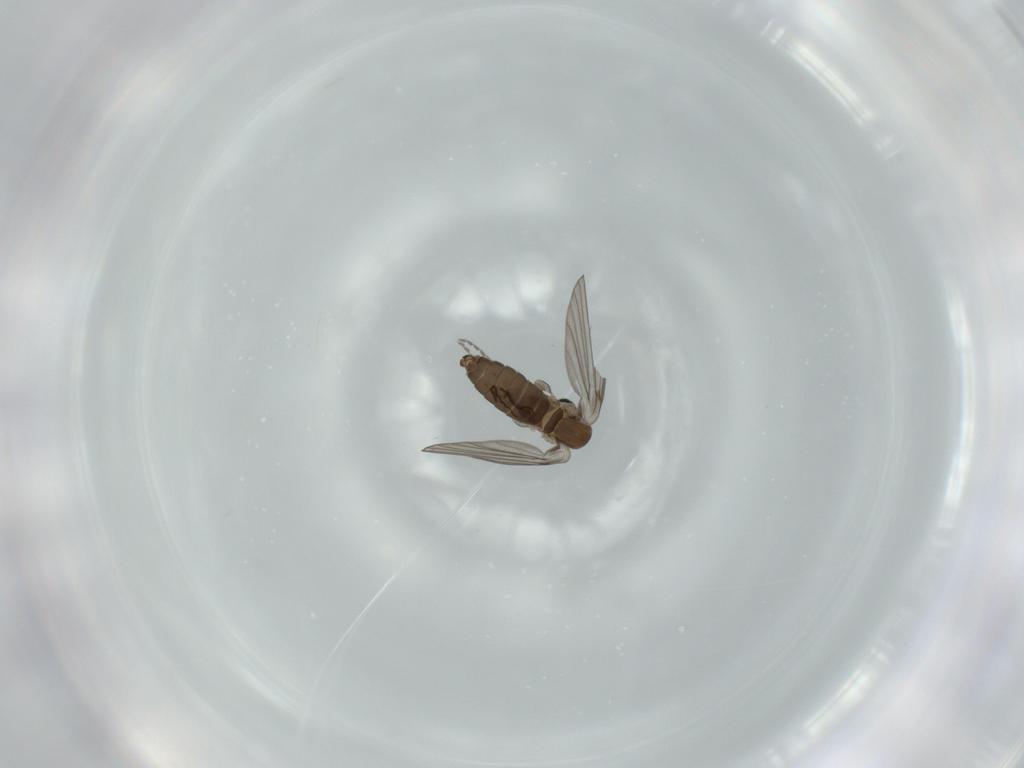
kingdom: Animalia
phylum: Arthropoda
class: Insecta
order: Diptera
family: Psychodidae
